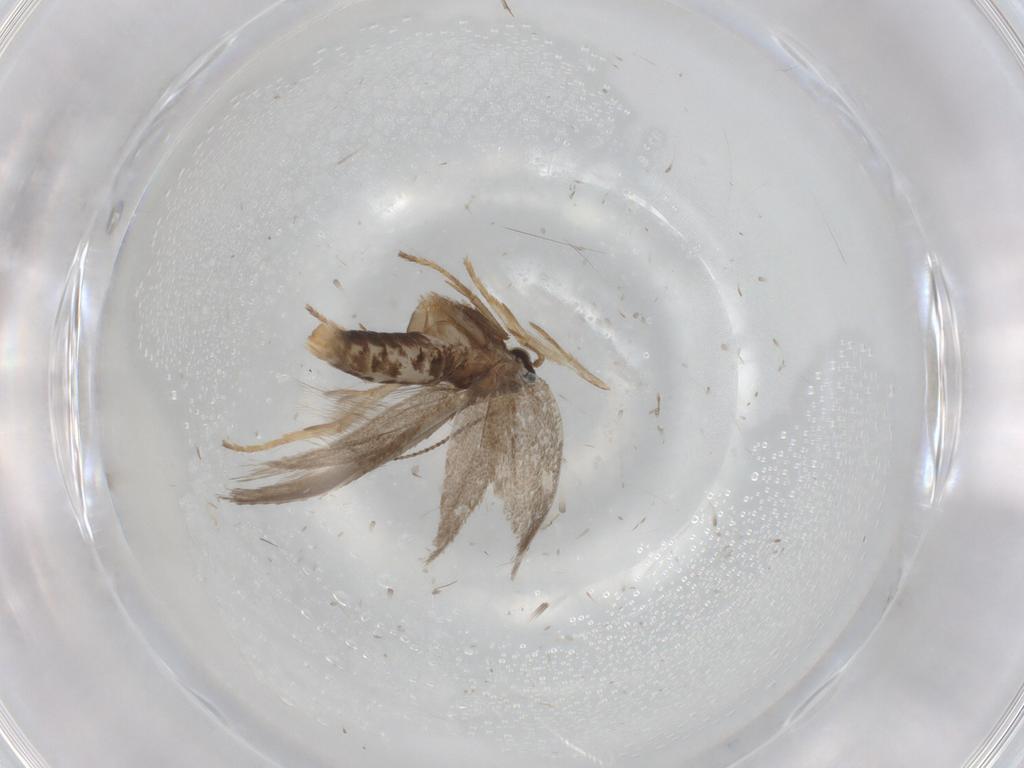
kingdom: Animalia
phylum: Arthropoda
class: Insecta
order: Lepidoptera
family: Nepticulidae
